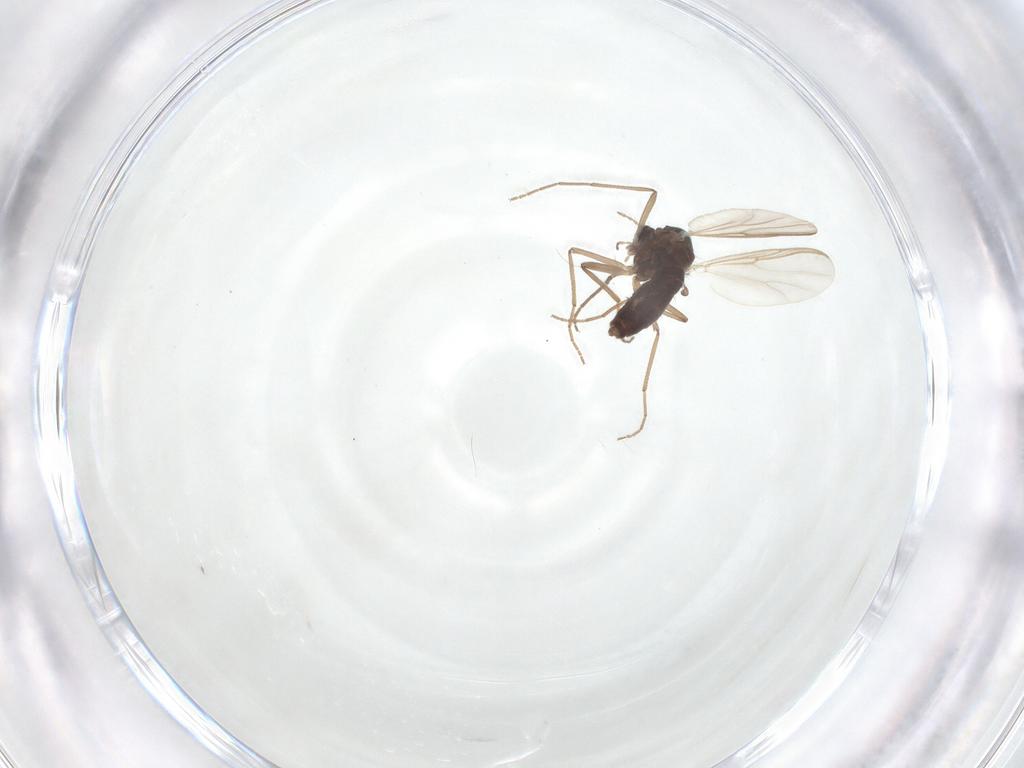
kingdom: Animalia
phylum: Arthropoda
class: Insecta
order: Diptera
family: Chironomidae
